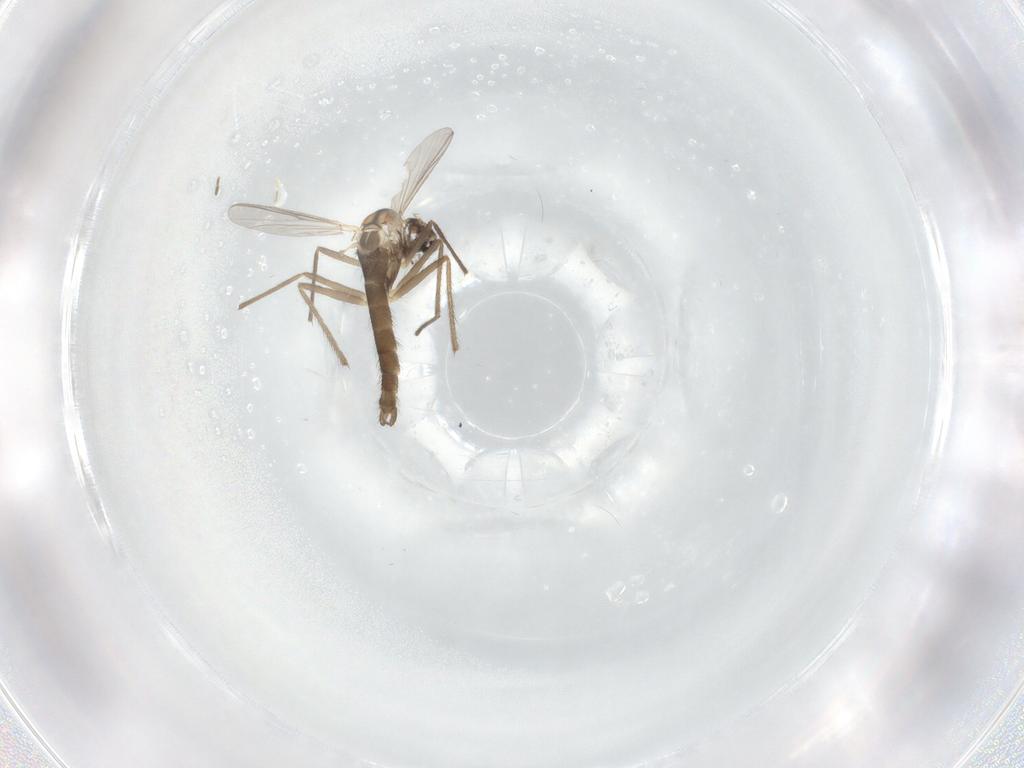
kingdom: Animalia
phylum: Arthropoda
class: Insecta
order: Diptera
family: Chironomidae
